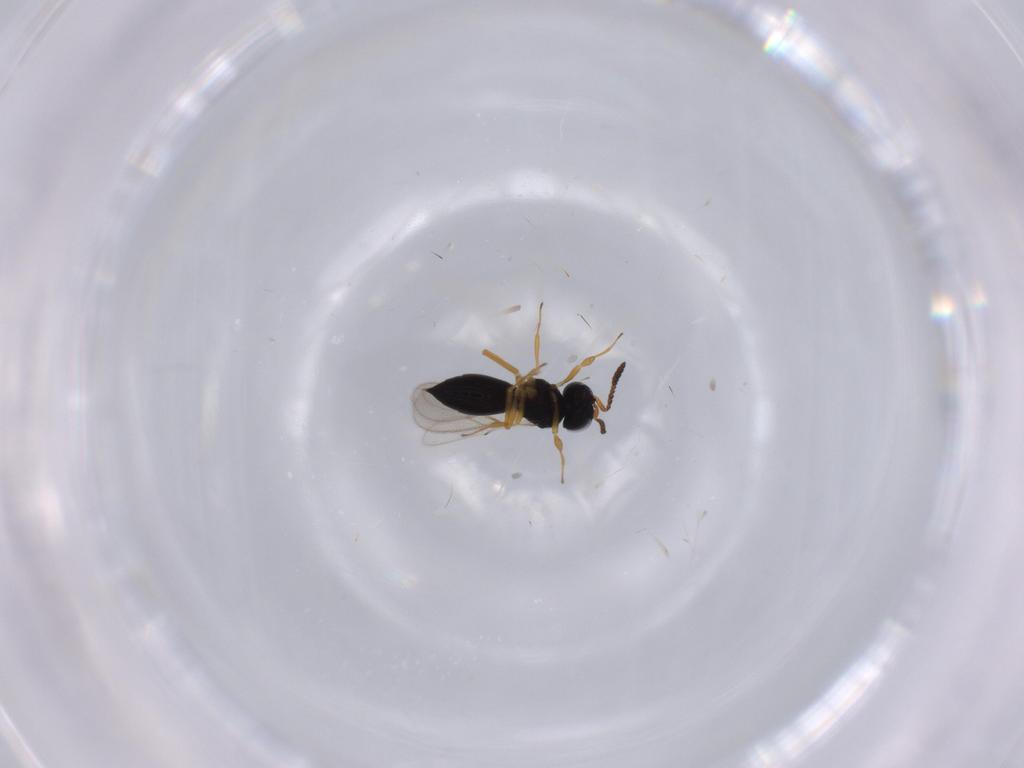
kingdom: Animalia
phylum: Arthropoda
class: Insecta
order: Hymenoptera
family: Scelionidae
